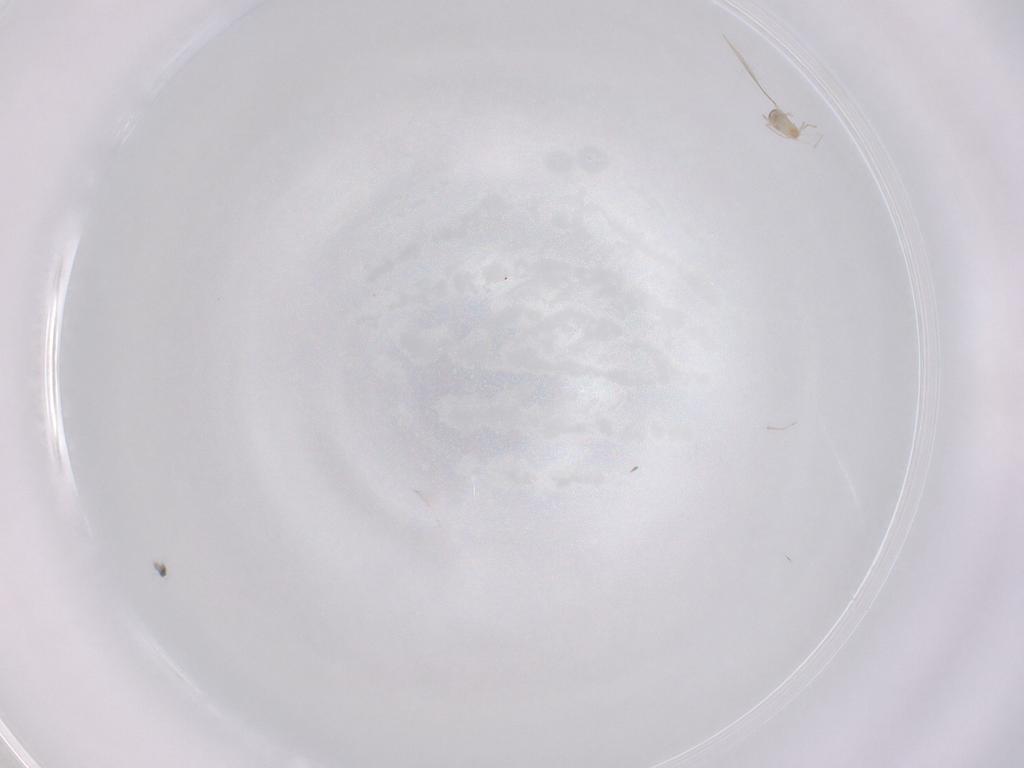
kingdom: Animalia
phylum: Arthropoda
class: Insecta
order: Diptera
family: Cecidomyiidae
